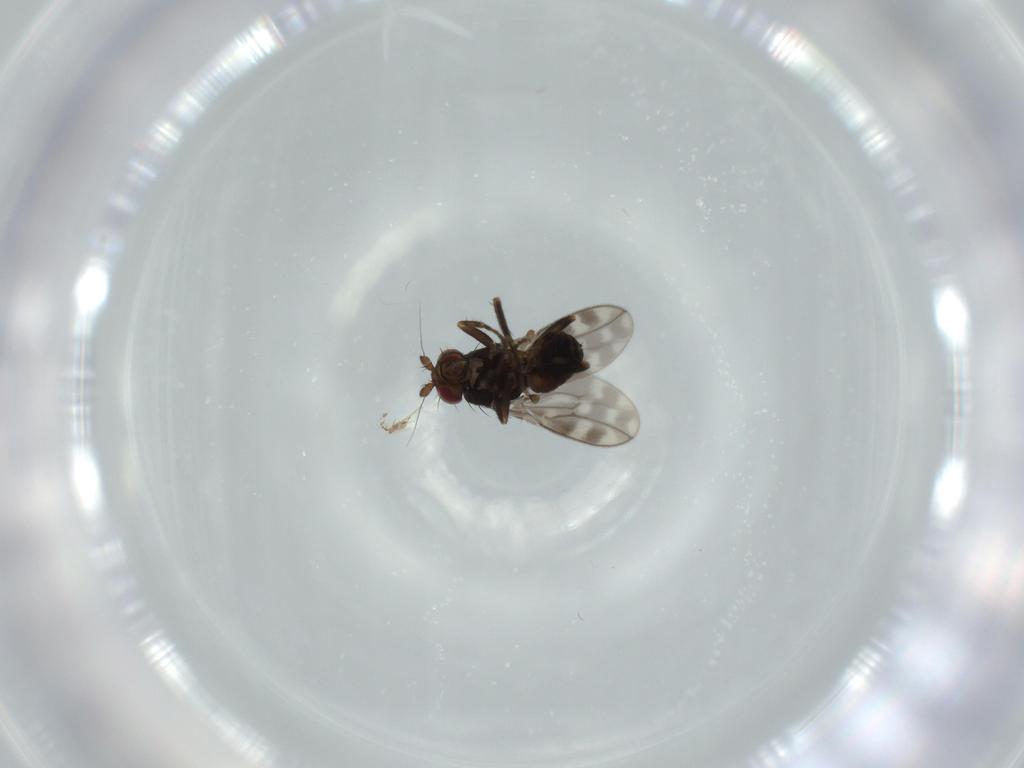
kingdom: Animalia
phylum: Arthropoda
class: Insecta
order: Diptera
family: Sphaeroceridae
